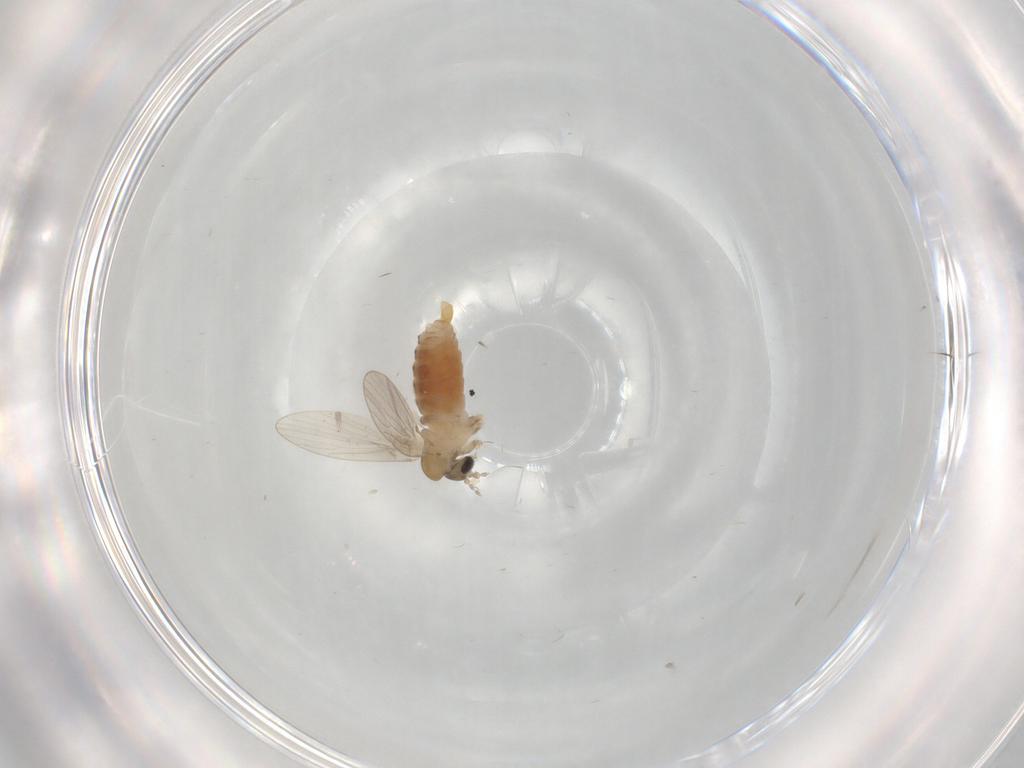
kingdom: Animalia
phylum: Arthropoda
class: Insecta
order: Diptera
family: Psychodidae
